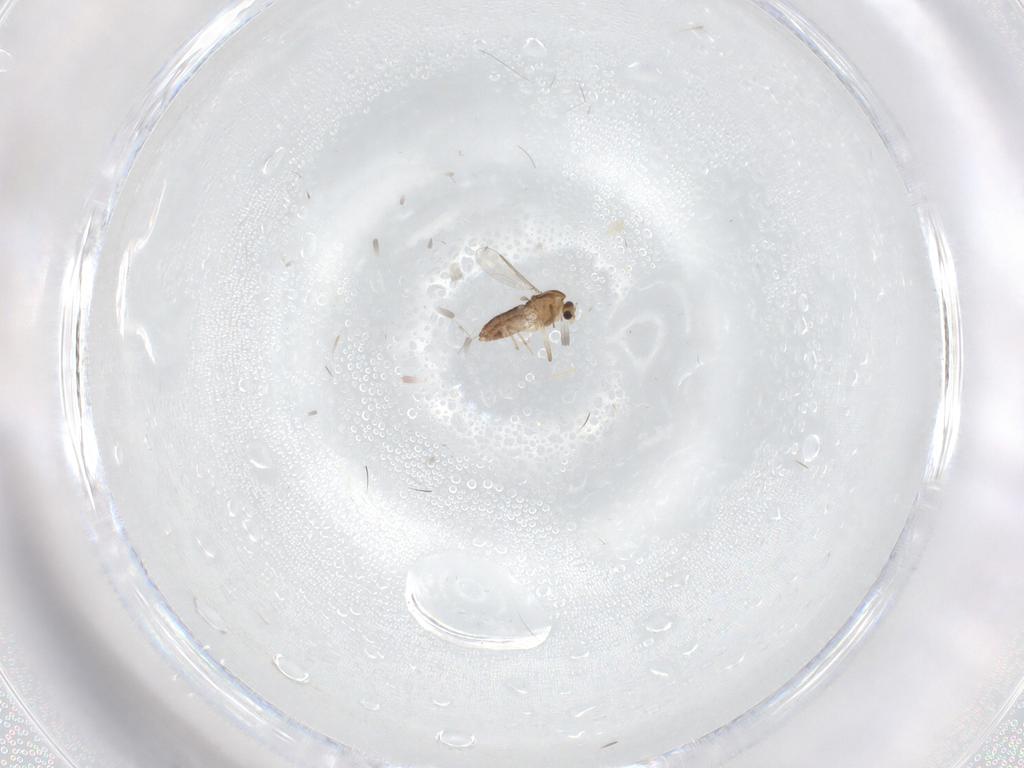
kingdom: Animalia
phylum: Arthropoda
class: Insecta
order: Diptera
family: Chironomidae
